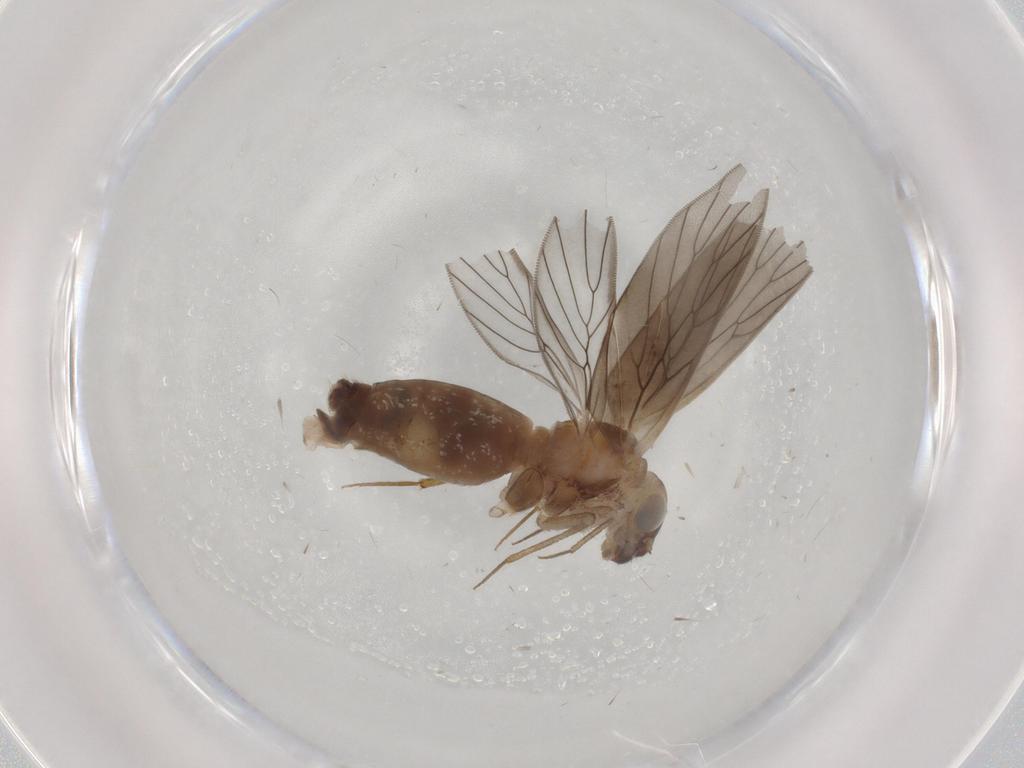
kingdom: Animalia
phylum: Arthropoda
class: Insecta
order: Psocodea
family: Lepidopsocidae
